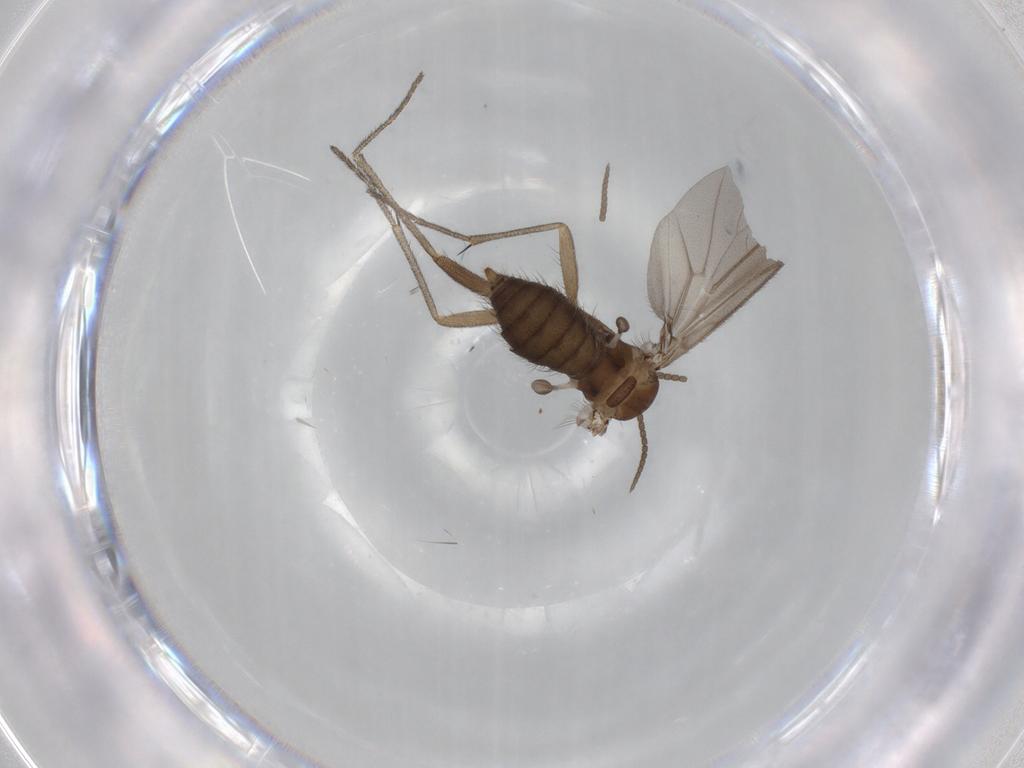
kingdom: Animalia
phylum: Arthropoda
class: Insecta
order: Diptera
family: Ceratopogonidae
